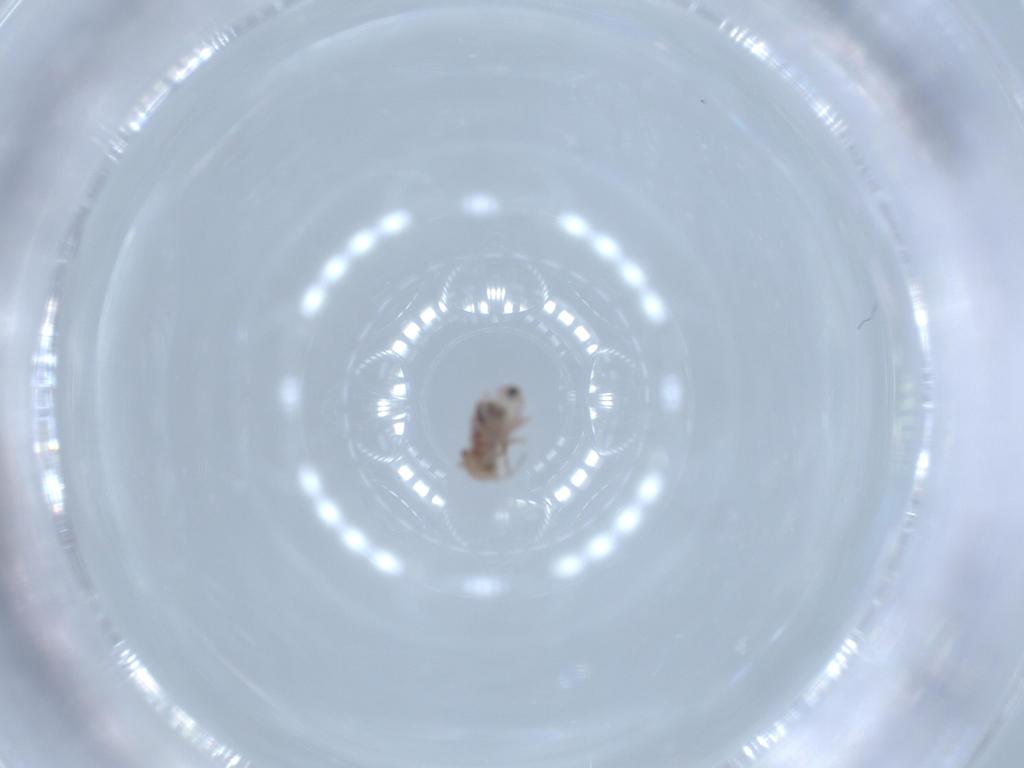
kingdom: Animalia
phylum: Arthropoda
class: Insecta
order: Psocodea
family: Ectopsocidae
